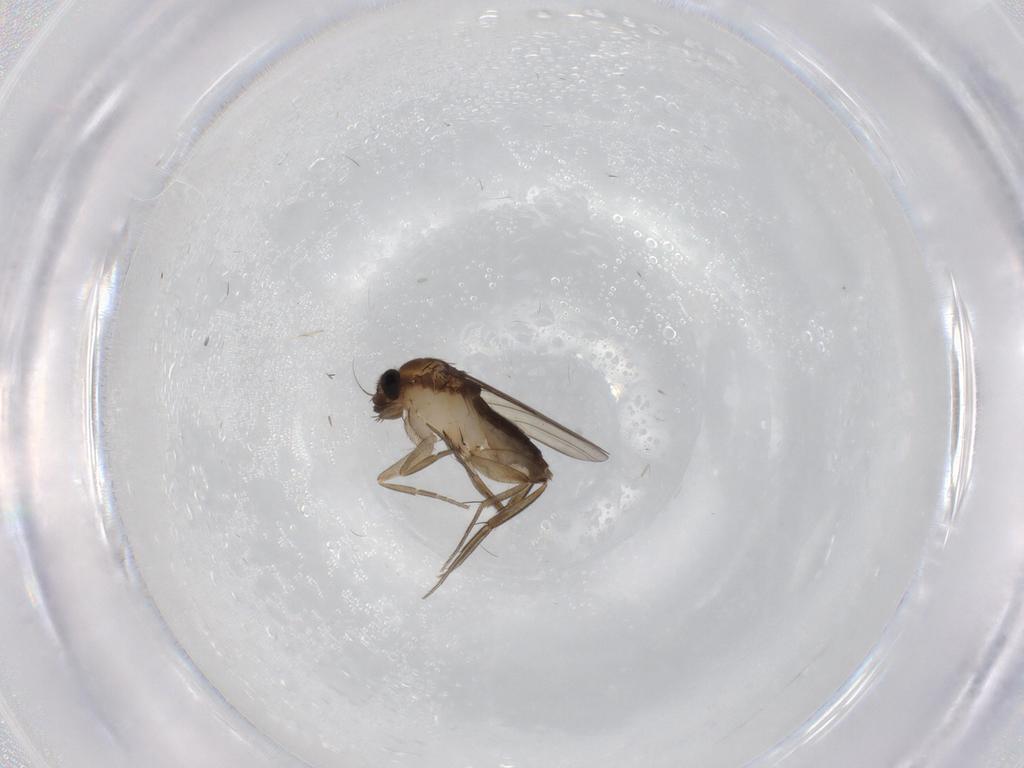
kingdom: Animalia
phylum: Arthropoda
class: Insecta
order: Diptera
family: Phoridae
